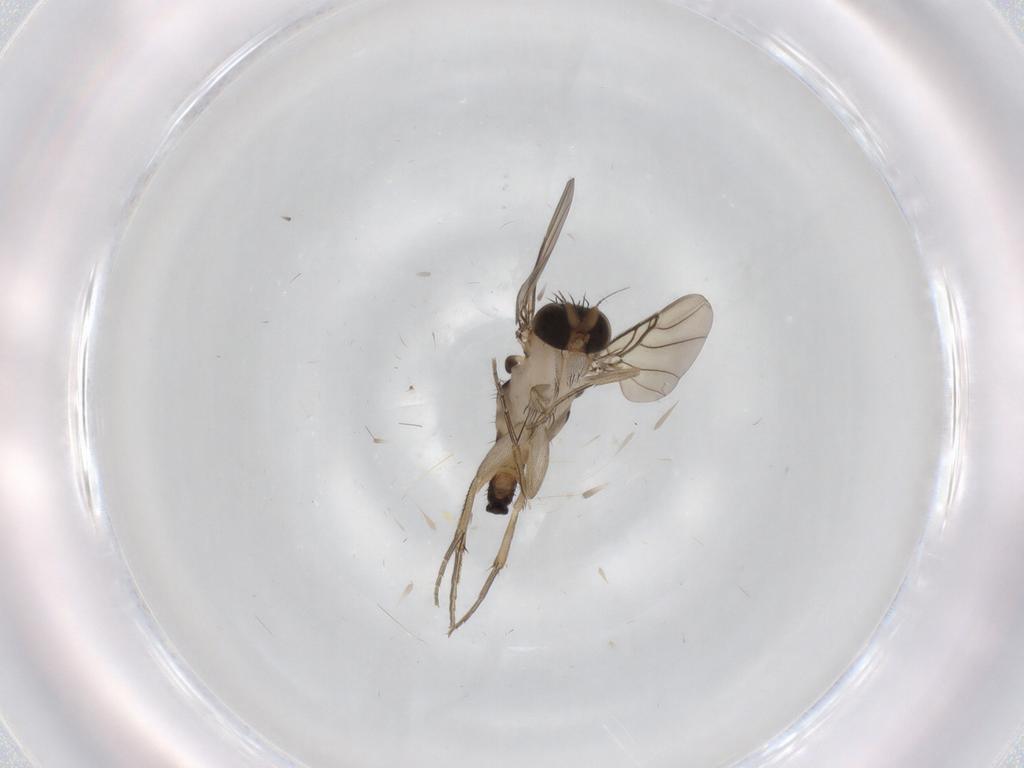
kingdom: Animalia
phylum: Arthropoda
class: Insecta
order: Diptera
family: Phoridae
